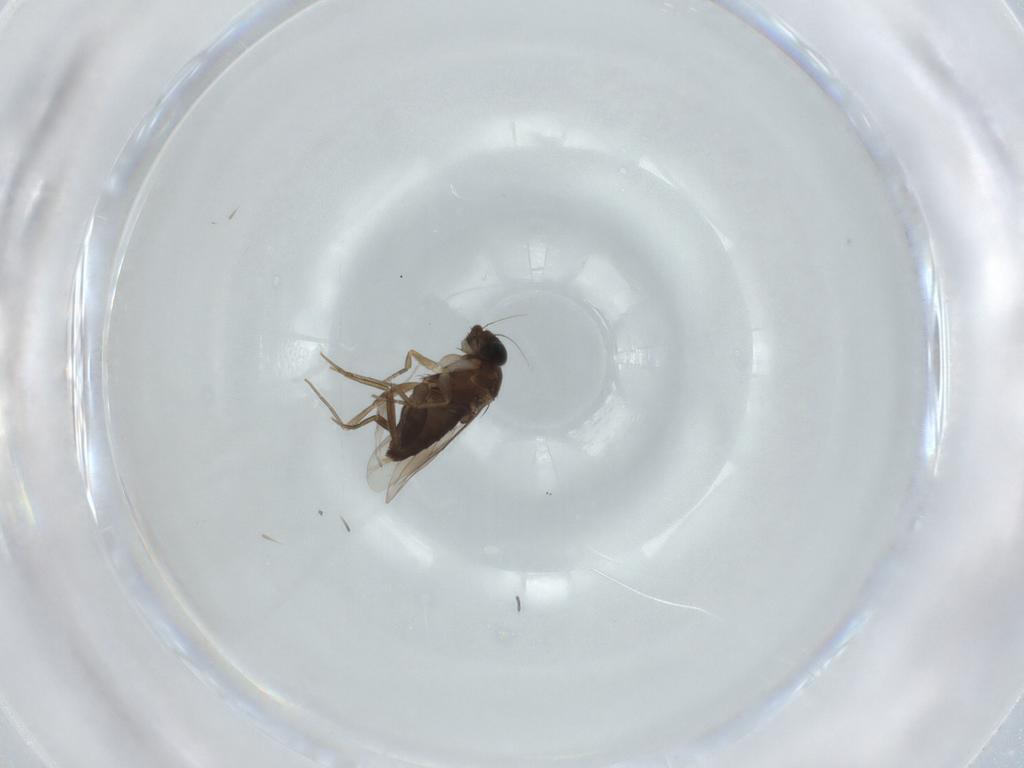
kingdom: Animalia
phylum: Arthropoda
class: Insecta
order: Diptera
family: Phoridae
